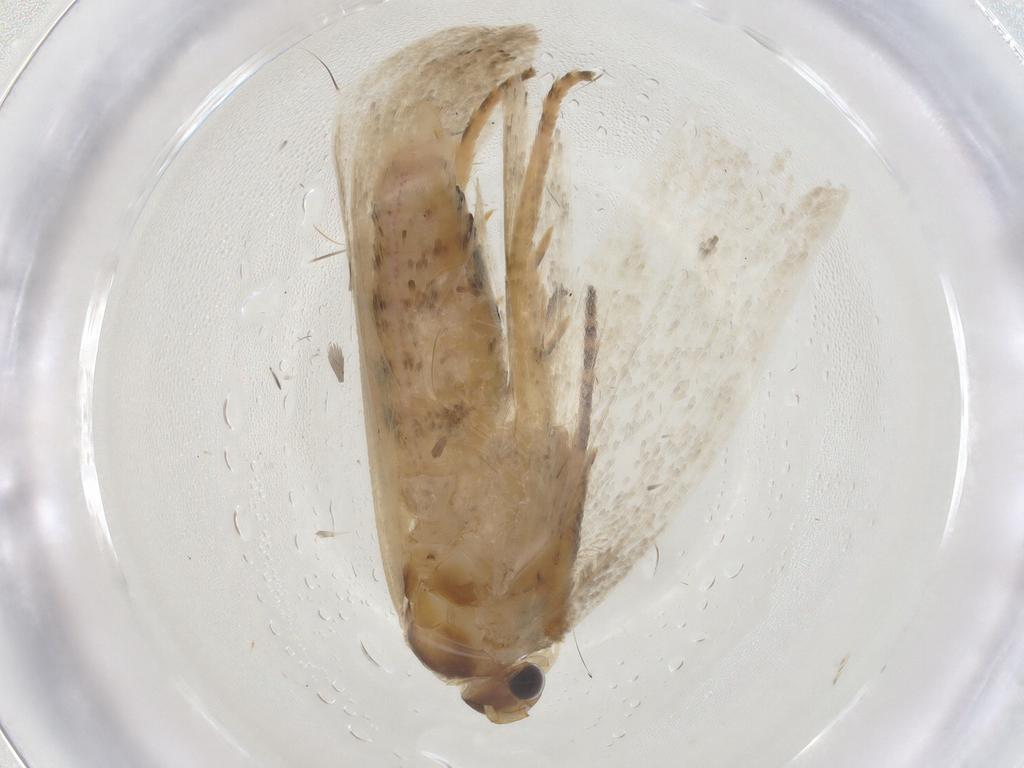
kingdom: Animalia
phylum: Arthropoda
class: Insecta
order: Lepidoptera
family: Depressariidae
